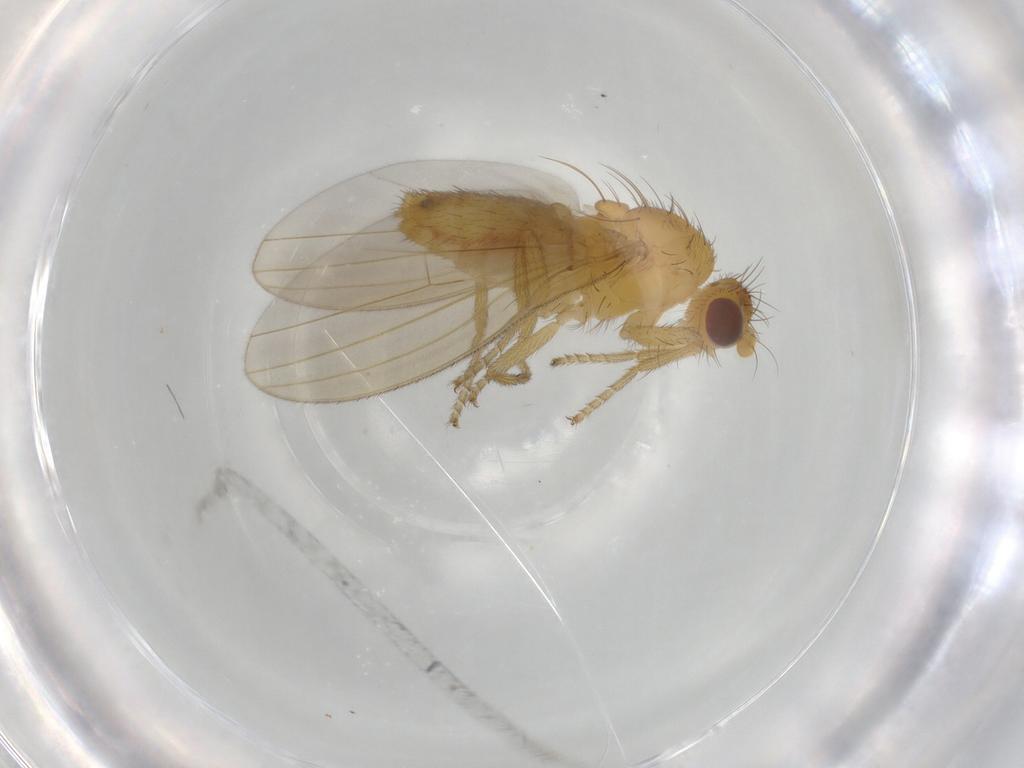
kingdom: Animalia
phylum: Arthropoda
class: Insecta
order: Diptera
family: Natalimyzidae
